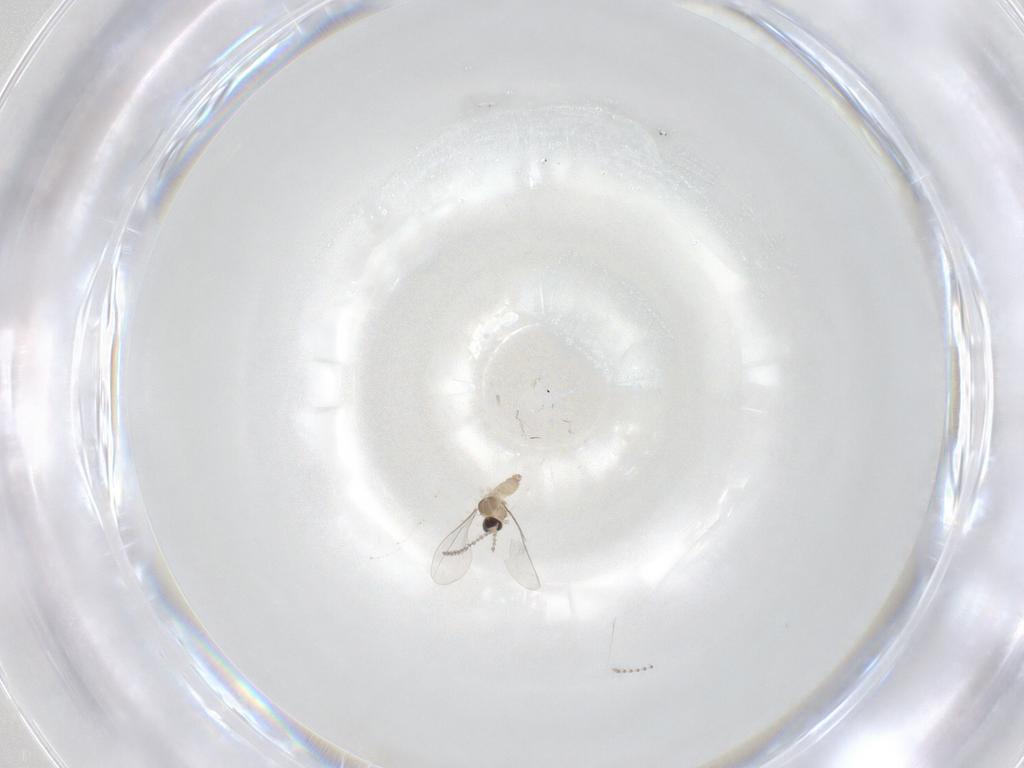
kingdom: Animalia
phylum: Arthropoda
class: Insecta
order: Diptera
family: Cecidomyiidae
